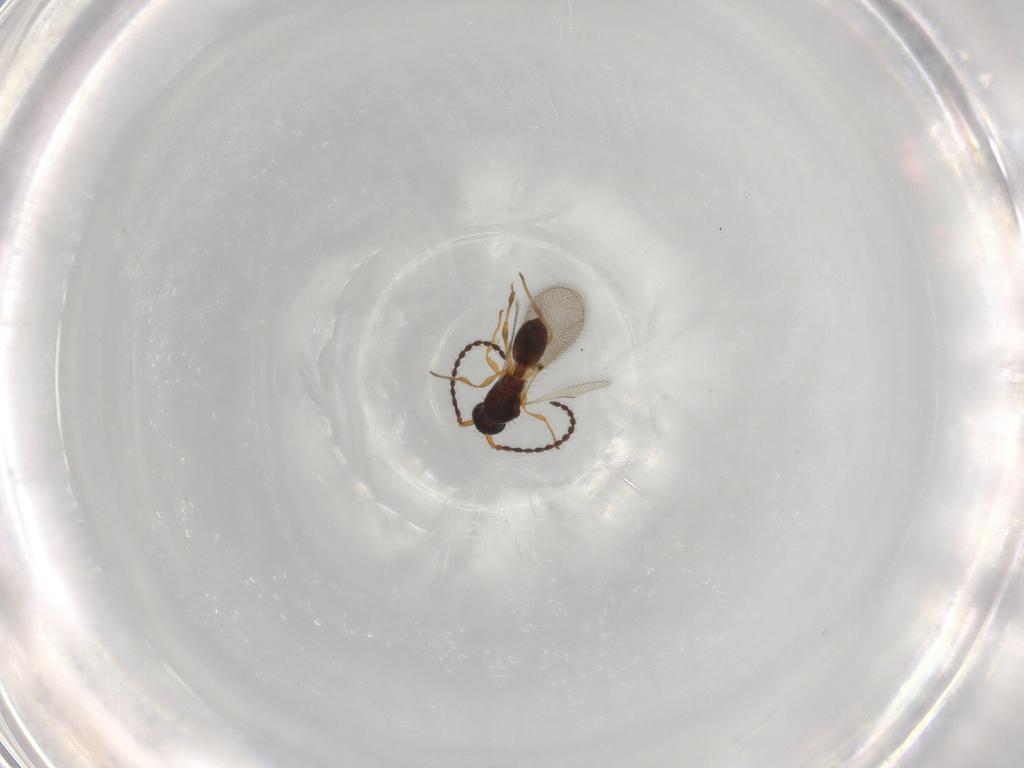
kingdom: Animalia
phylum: Arthropoda
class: Insecta
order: Hymenoptera
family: Diapriidae
